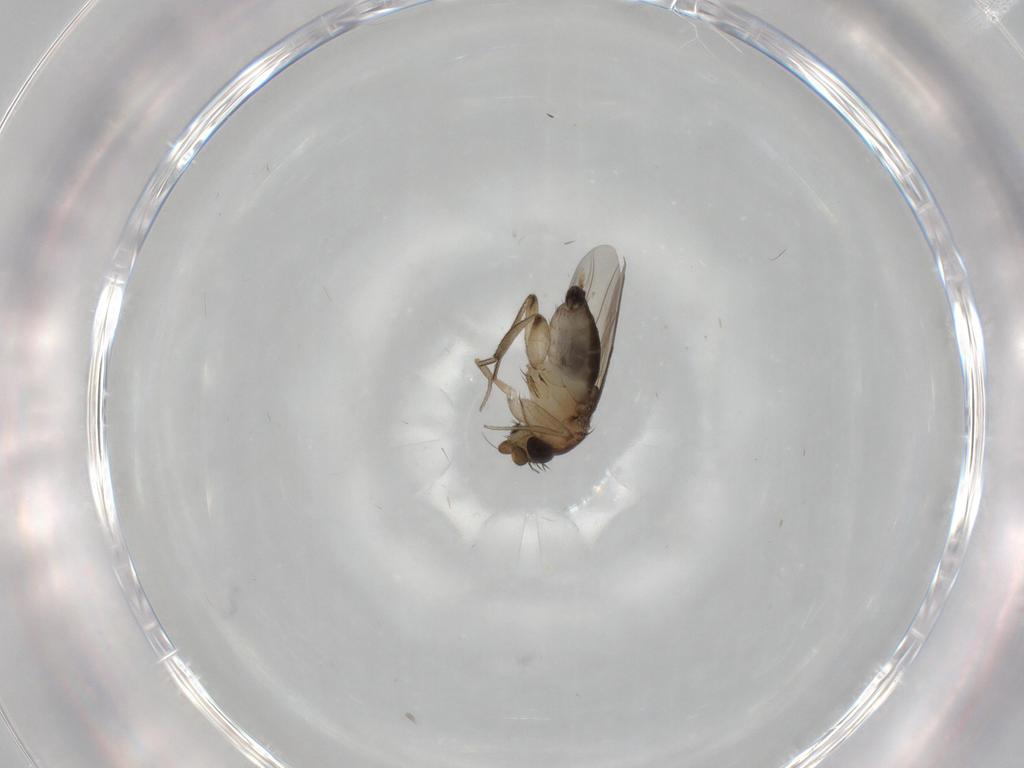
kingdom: Animalia
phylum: Arthropoda
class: Insecta
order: Diptera
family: Phoridae
